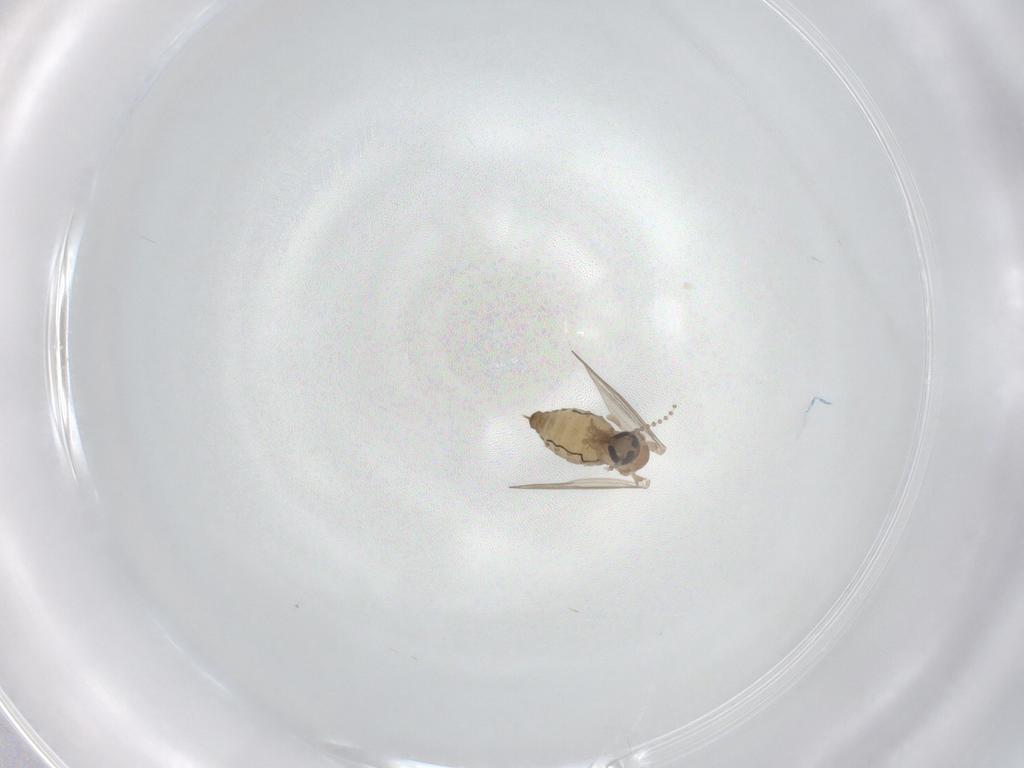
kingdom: Animalia
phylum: Arthropoda
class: Insecta
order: Diptera
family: Psychodidae
